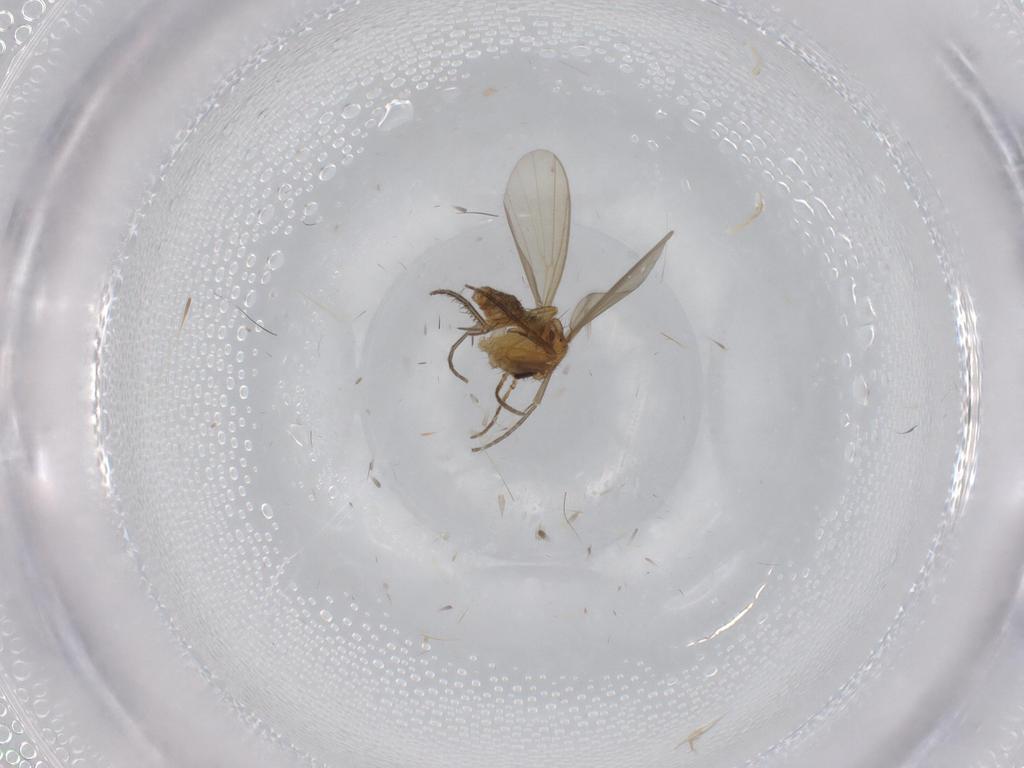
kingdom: Animalia
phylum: Arthropoda
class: Insecta
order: Diptera
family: Mycetophilidae
